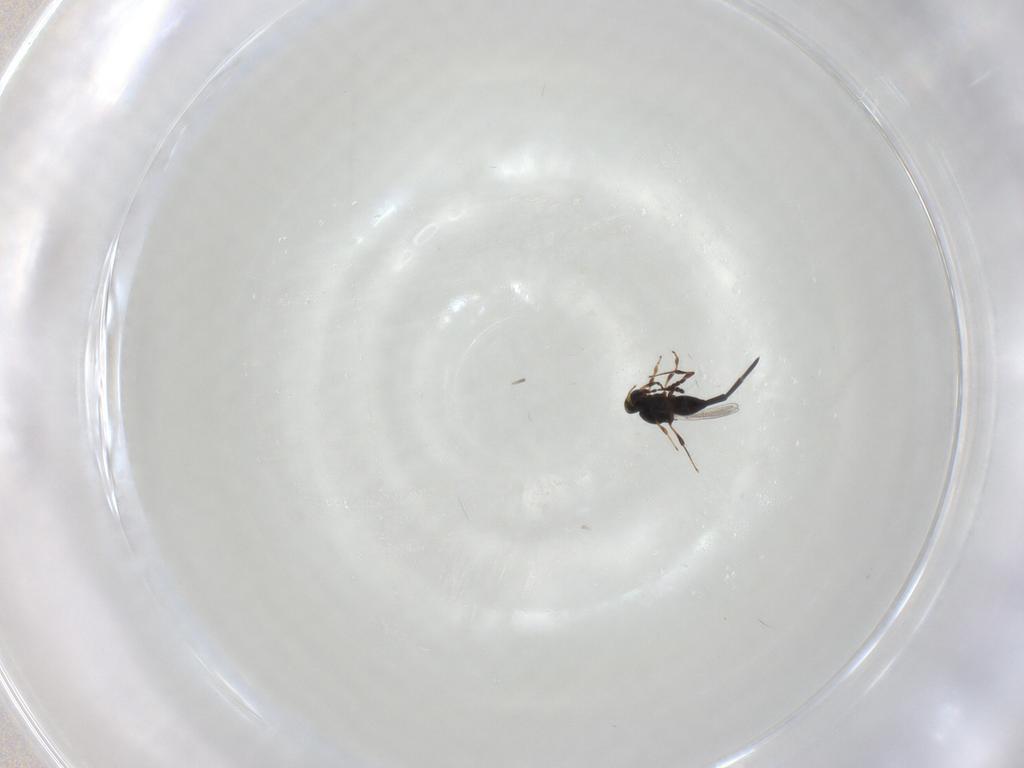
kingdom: Animalia
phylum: Arthropoda
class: Insecta
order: Hymenoptera
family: Platygastridae
